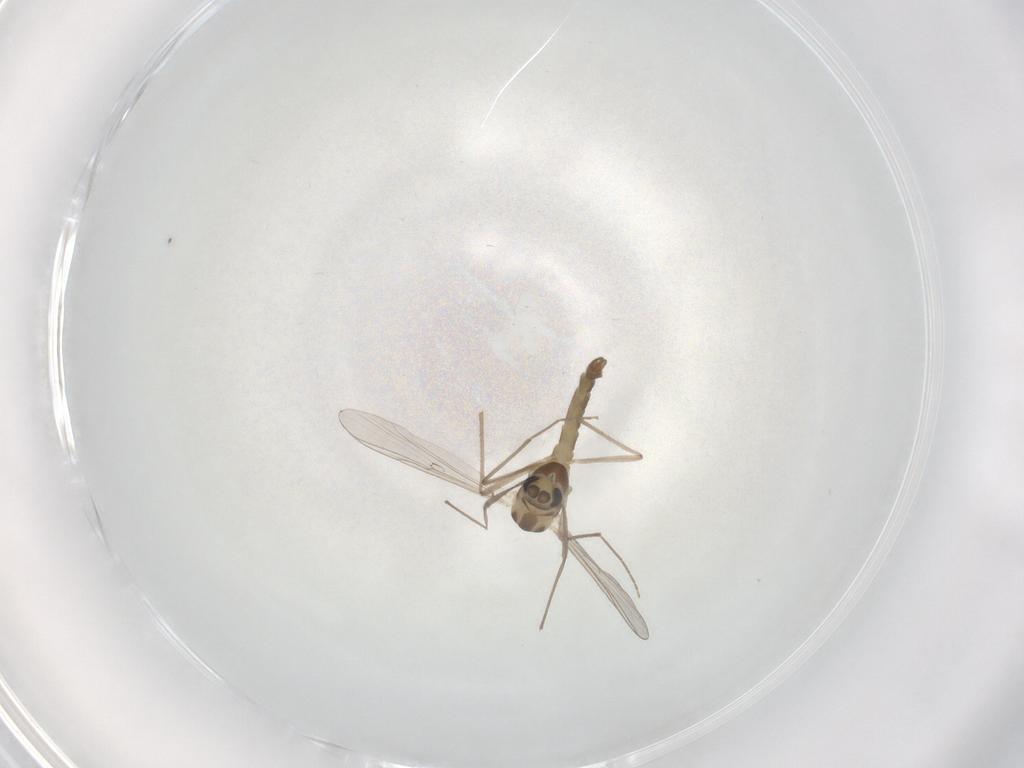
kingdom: Animalia
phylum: Arthropoda
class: Insecta
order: Diptera
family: Chironomidae
